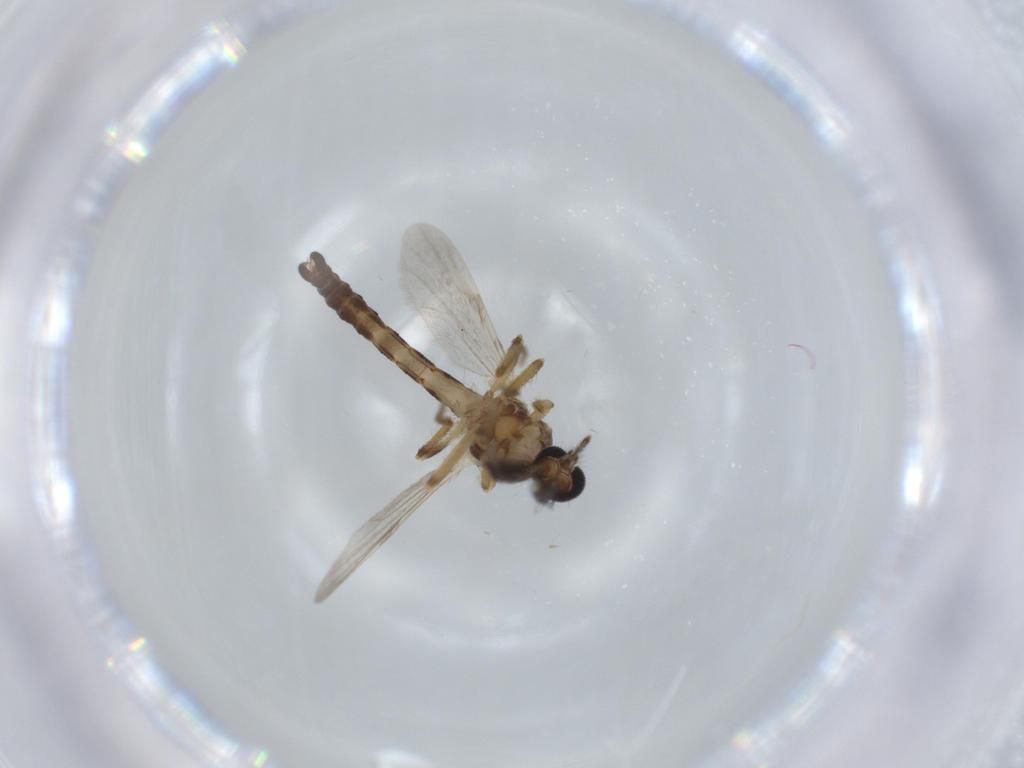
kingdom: Animalia
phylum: Arthropoda
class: Insecta
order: Diptera
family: Ceratopogonidae
